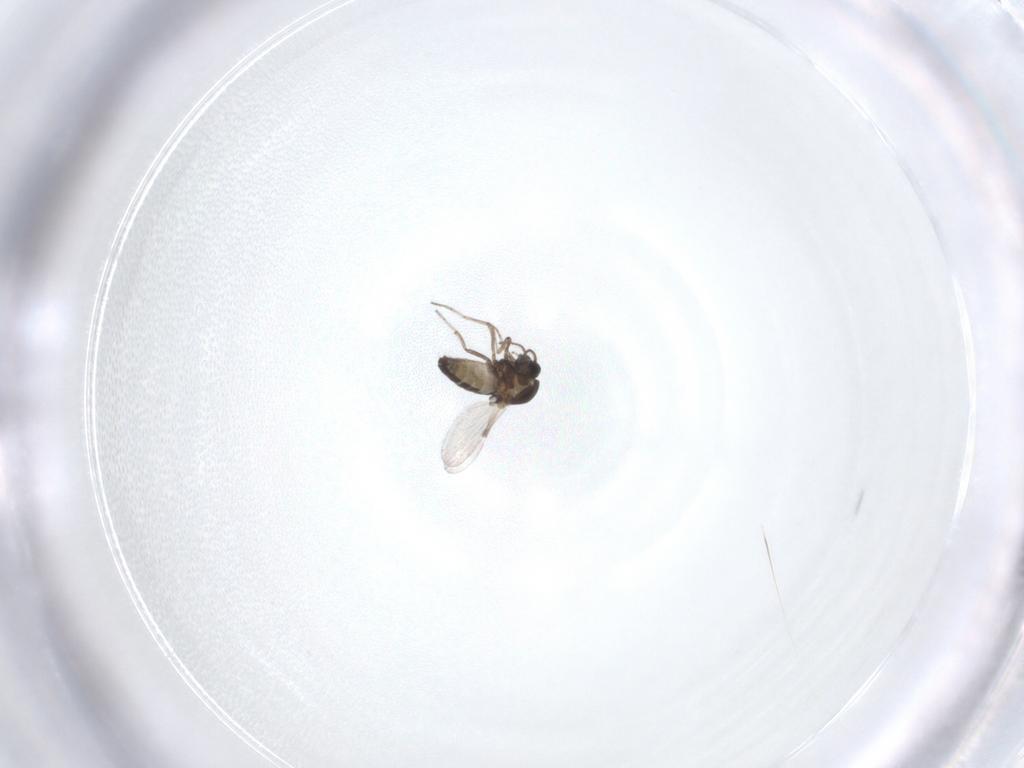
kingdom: Animalia
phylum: Arthropoda
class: Insecta
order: Diptera
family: Ceratopogonidae
